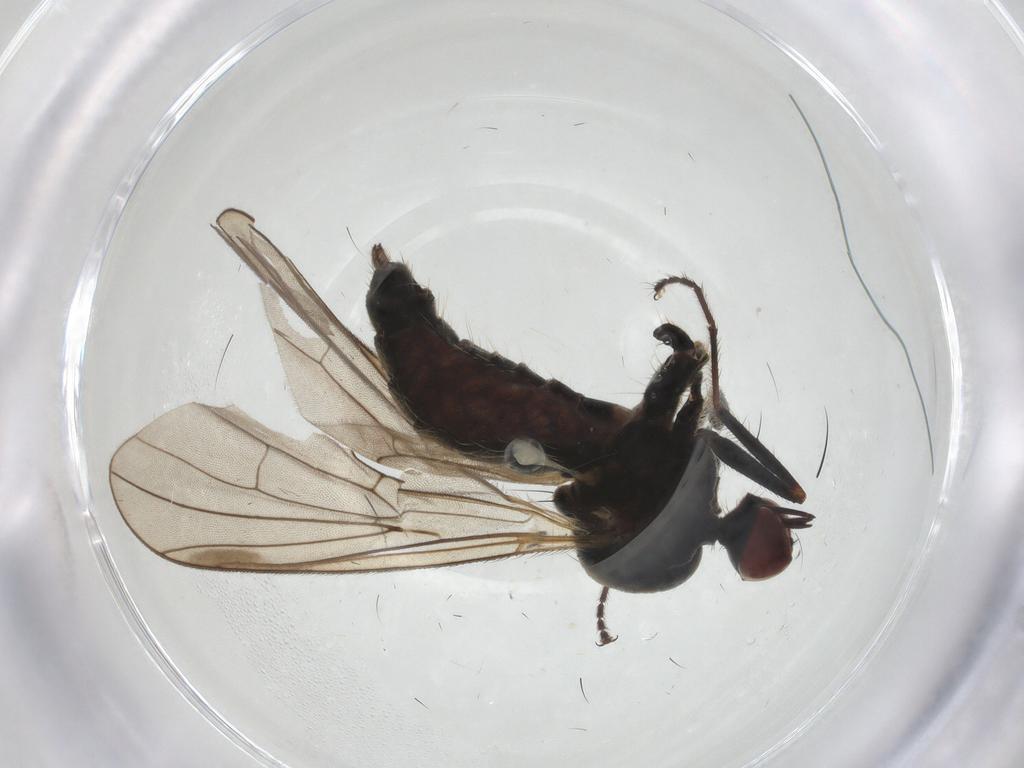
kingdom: Animalia
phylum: Arthropoda
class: Insecta
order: Diptera
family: Hybotidae
